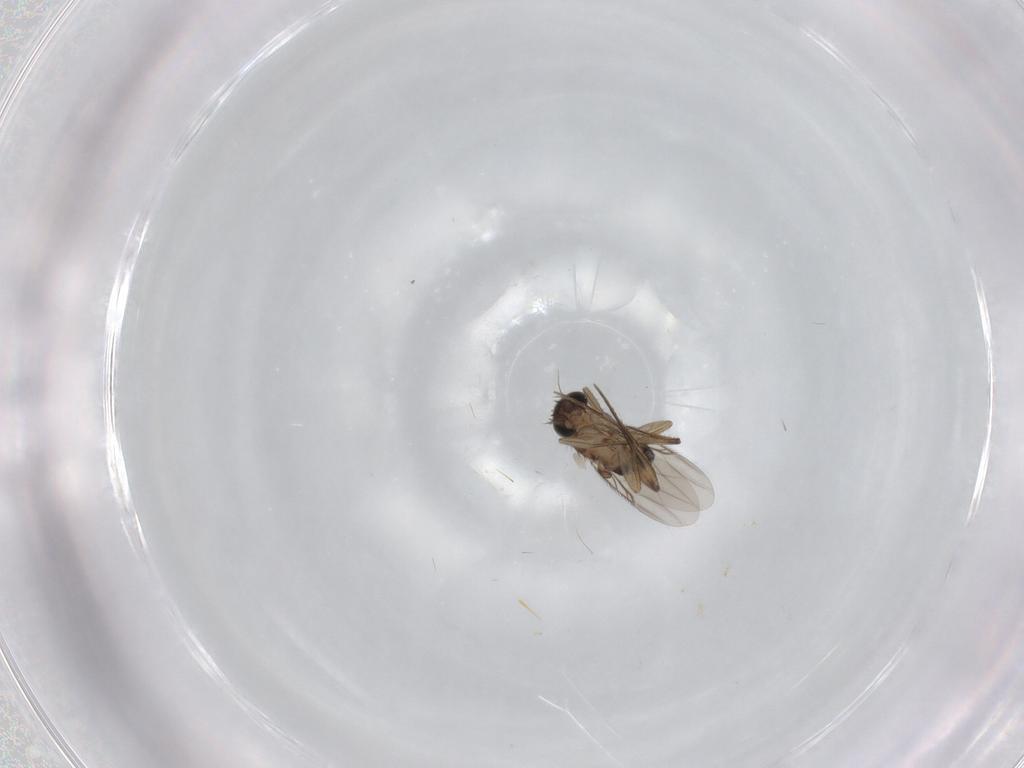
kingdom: Animalia
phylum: Arthropoda
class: Insecta
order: Diptera
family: Phoridae
